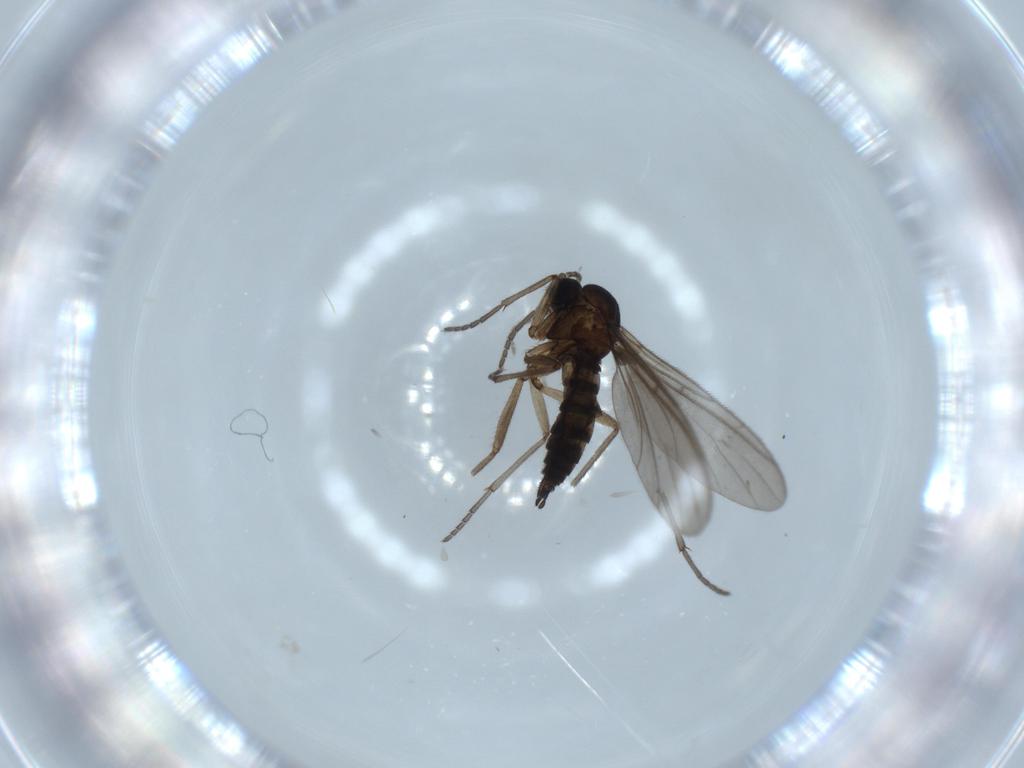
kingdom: Animalia
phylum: Arthropoda
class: Insecta
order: Diptera
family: Sciaridae
